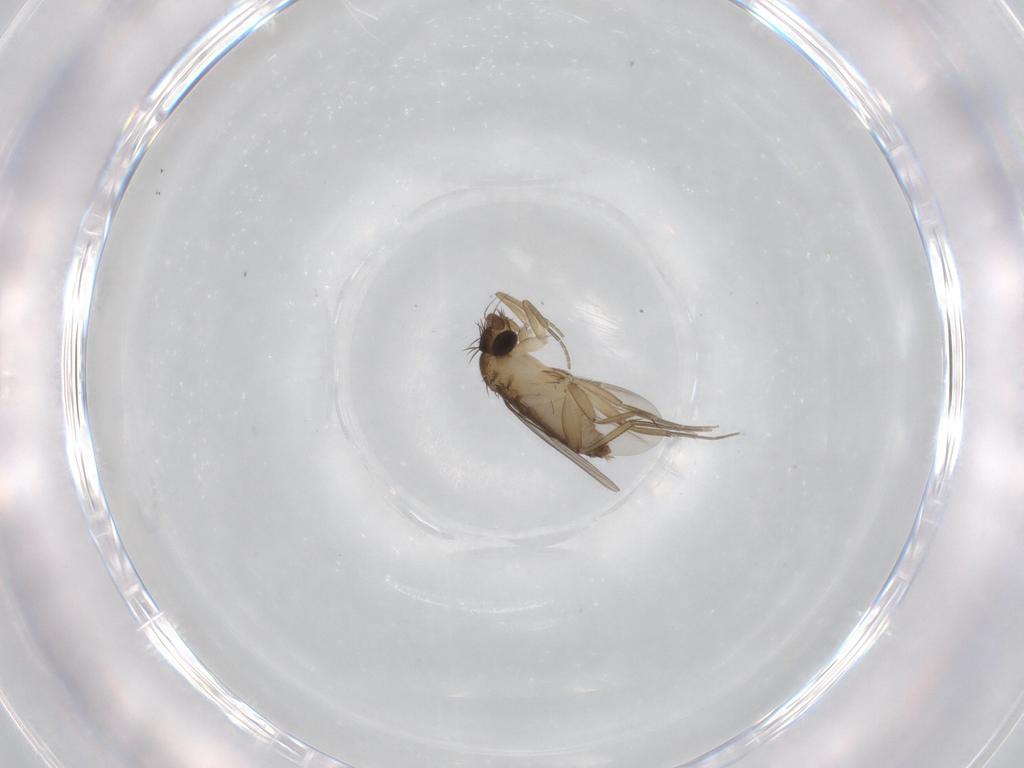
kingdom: Animalia
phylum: Arthropoda
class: Insecta
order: Diptera
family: Phoridae
